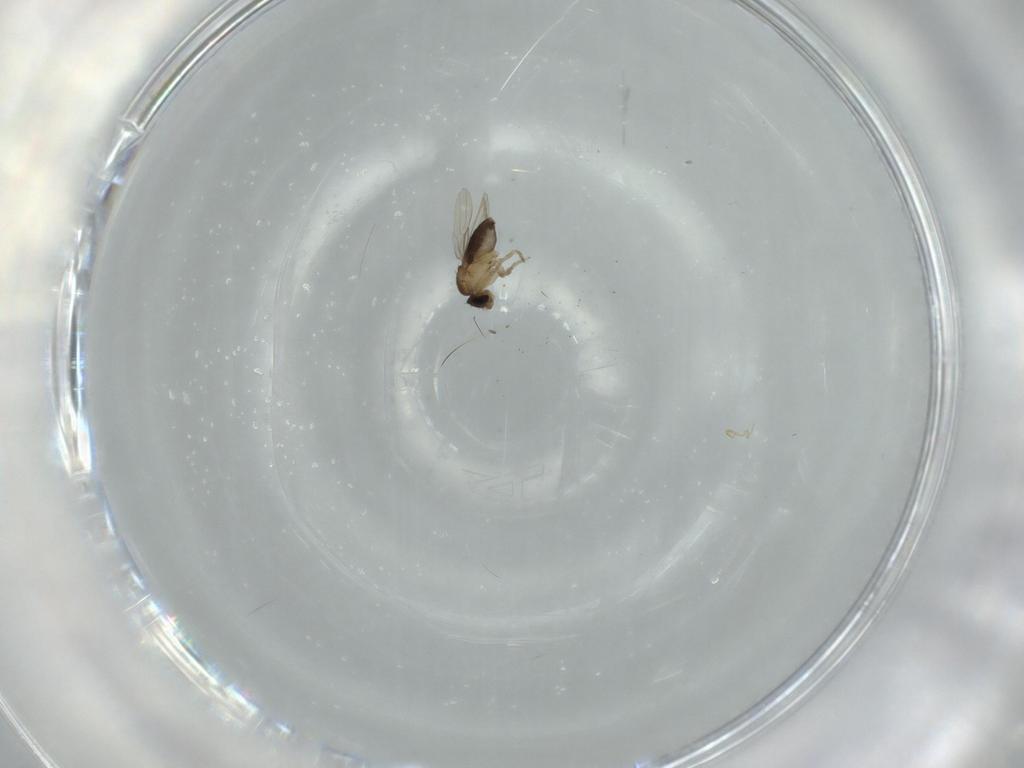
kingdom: Animalia
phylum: Arthropoda
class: Insecta
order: Diptera
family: Phoridae
